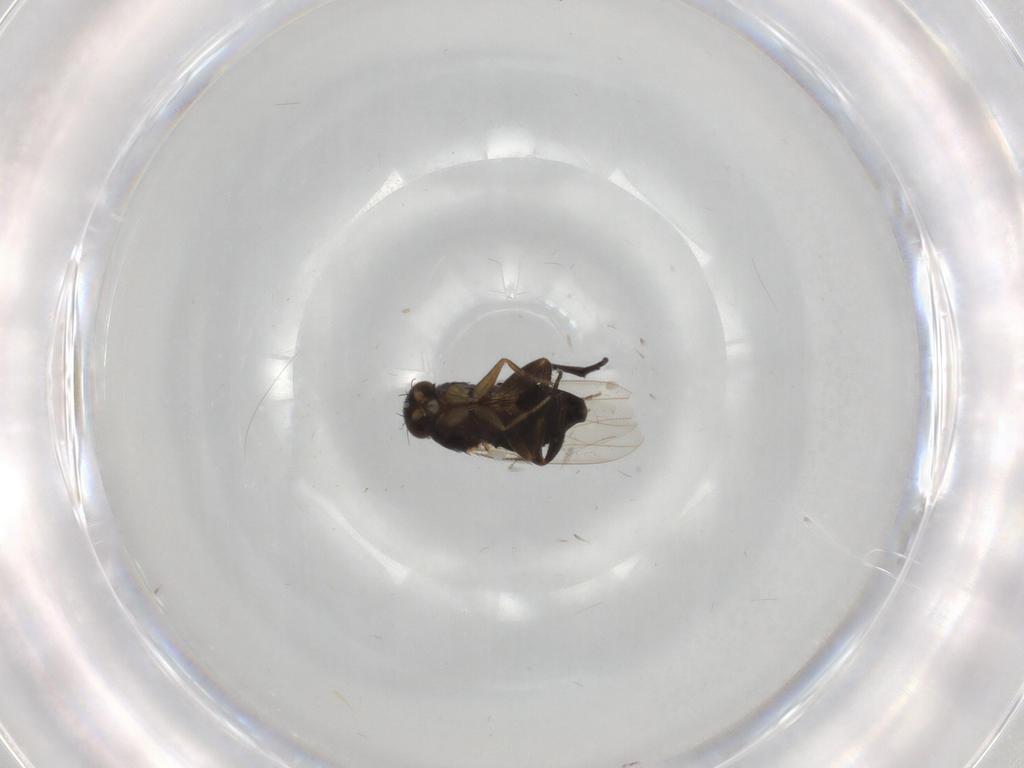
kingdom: Animalia
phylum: Arthropoda
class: Insecta
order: Diptera
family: Phoridae
